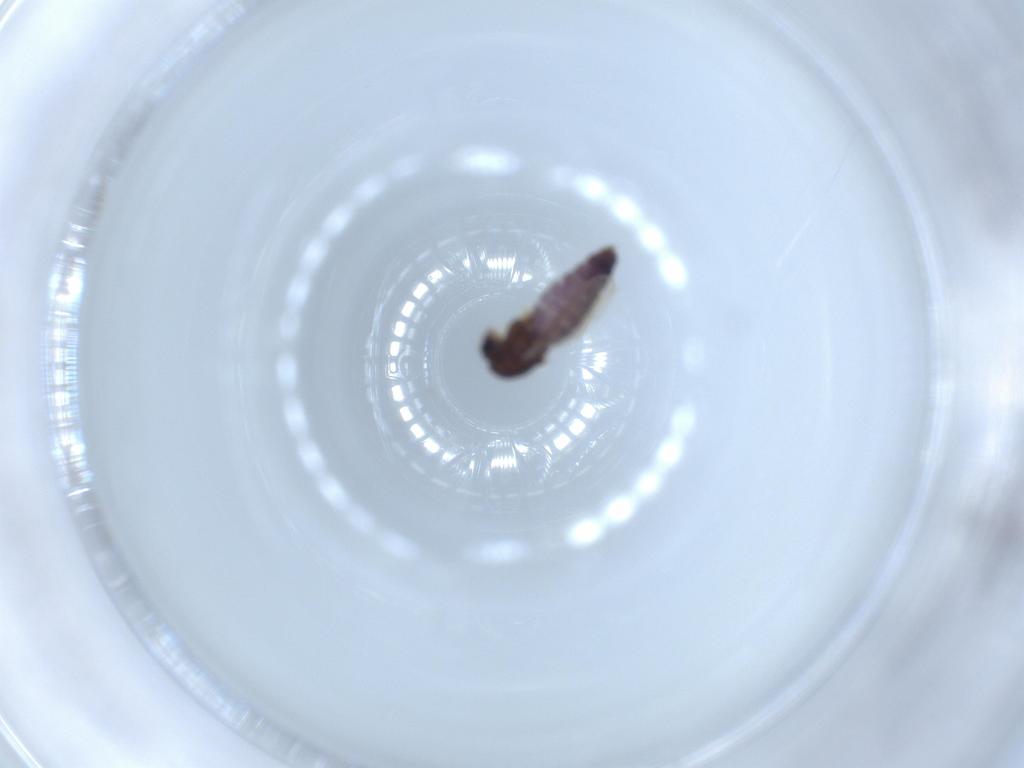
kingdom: Animalia
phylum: Arthropoda
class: Insecta
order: Diptera
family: Chironomidae
